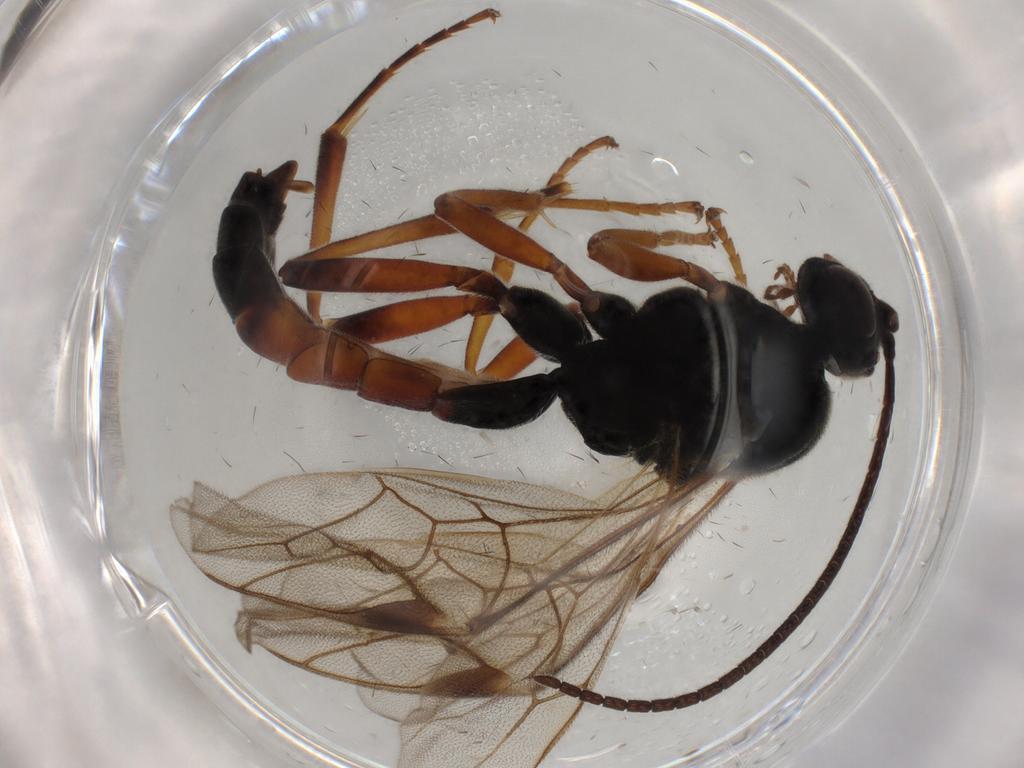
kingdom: Animalia
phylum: Arthropoda
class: Insecta
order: Hymenoptera
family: Ichneumonidae
